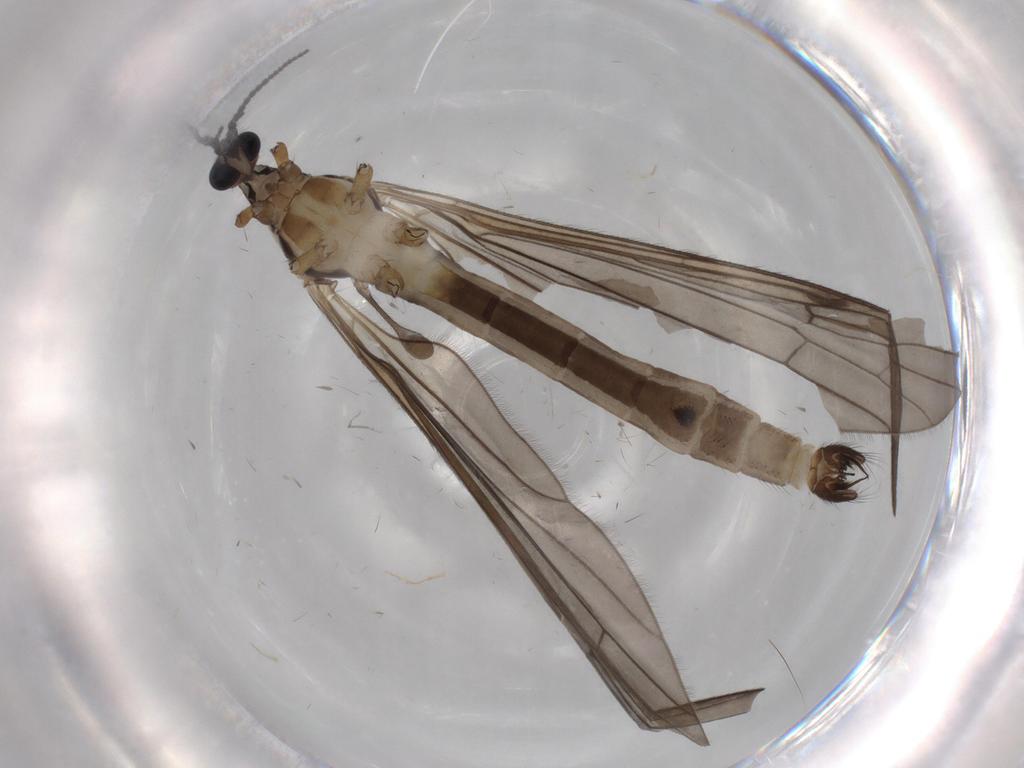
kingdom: Animalia
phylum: Arthropoda
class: Insecta
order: Diptera
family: Limoniidae
